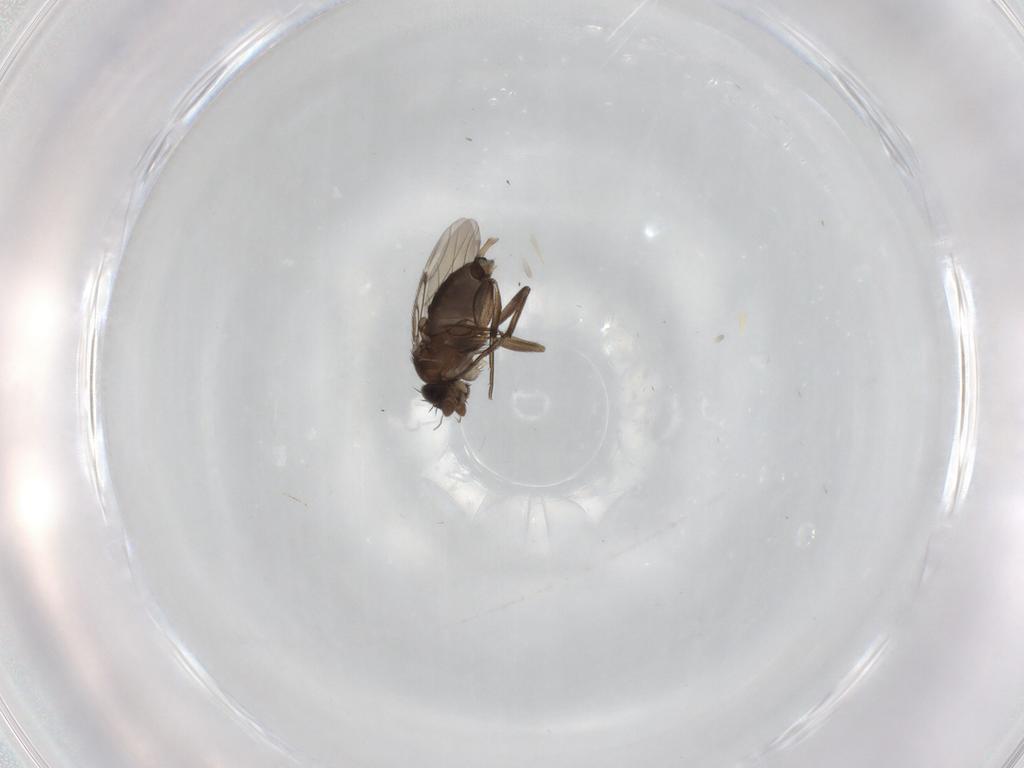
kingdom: Animalia
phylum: Arthropoda
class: Insecta
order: Diptera
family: Phoridae
